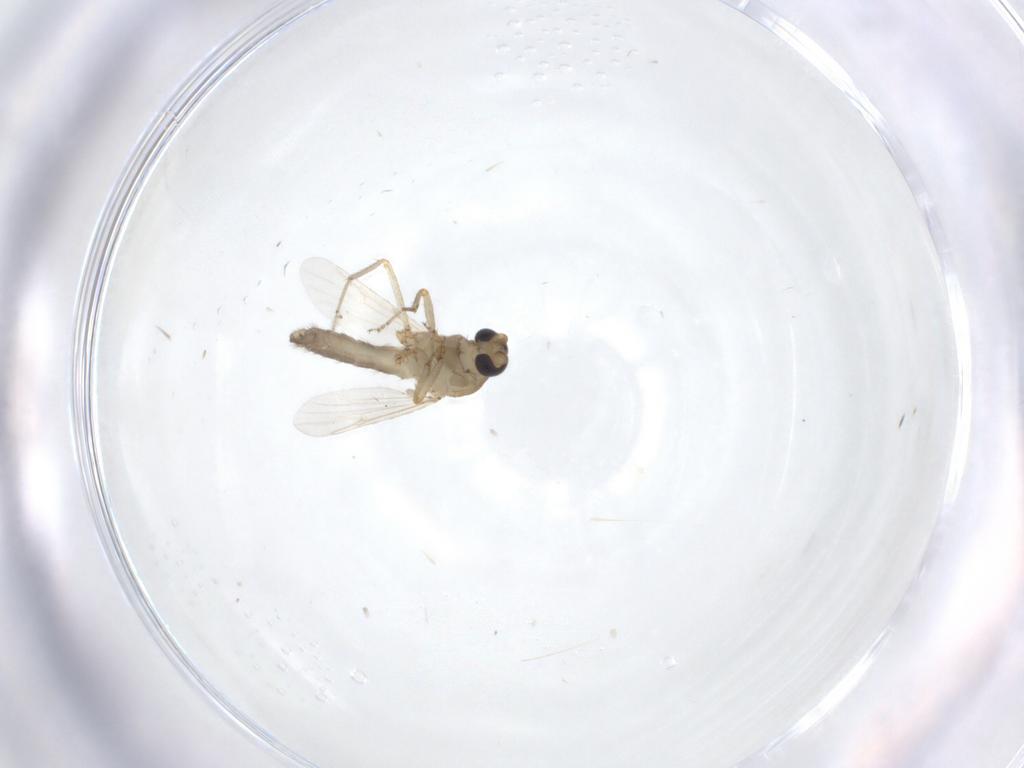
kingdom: Animalia
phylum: Arthropoda
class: Insecta
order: Diptera
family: Ceratopogonidae
